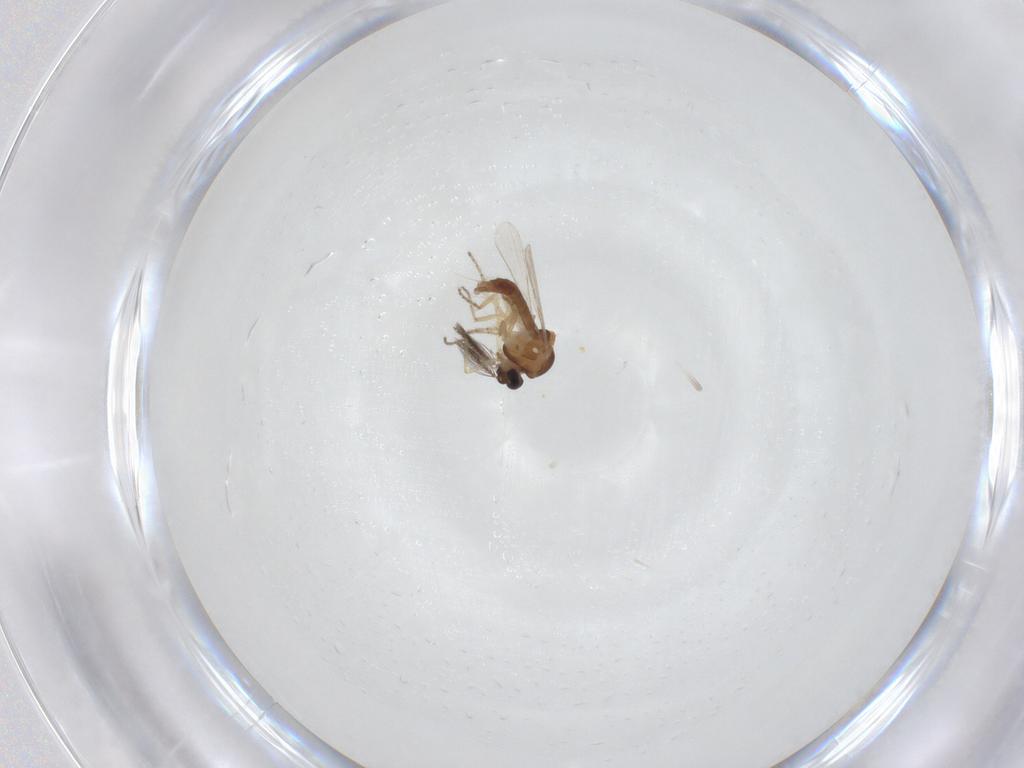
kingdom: Animalia
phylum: Arthropoda
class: Insecta
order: Diptera
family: Ceratopogonidae
